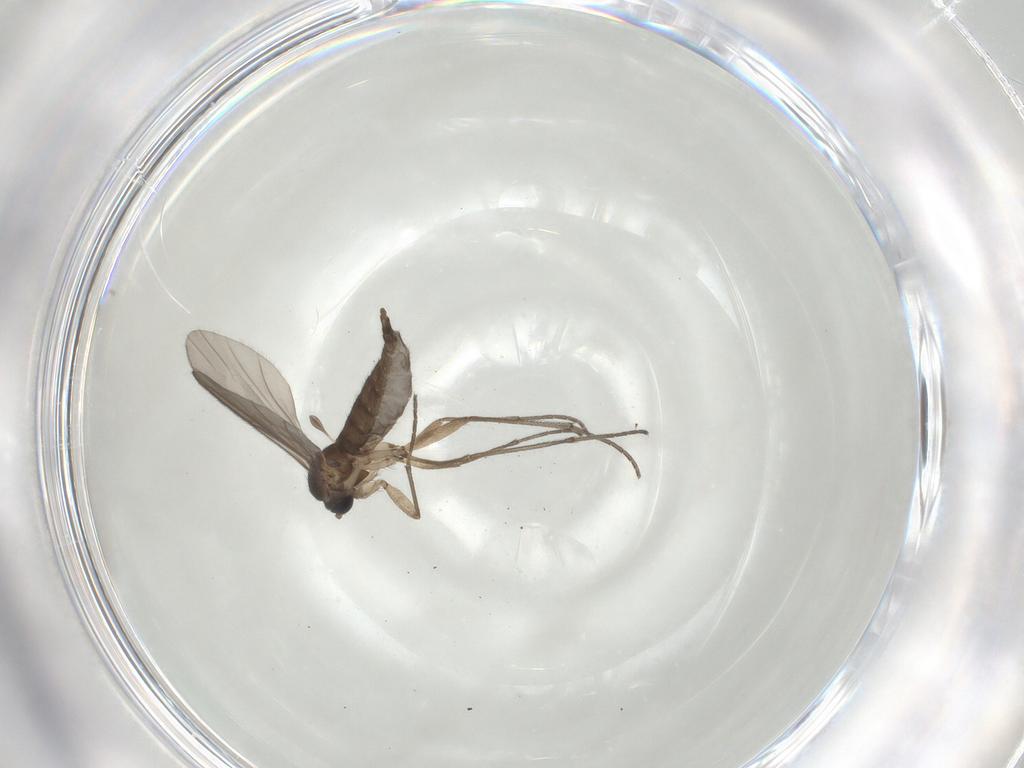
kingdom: Animalia
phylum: Arthropoda
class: Insecta
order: Diptera
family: Sciaridae
